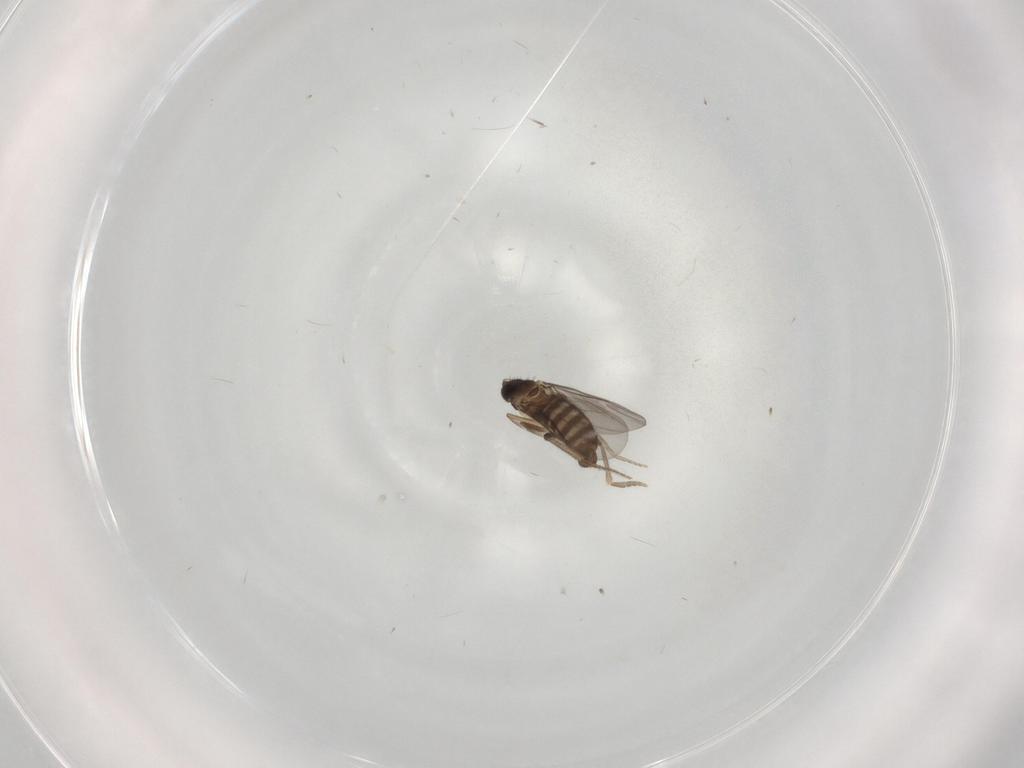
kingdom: Animalia
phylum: Arthropoda
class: Insecta
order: Diptera
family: Phoridae
